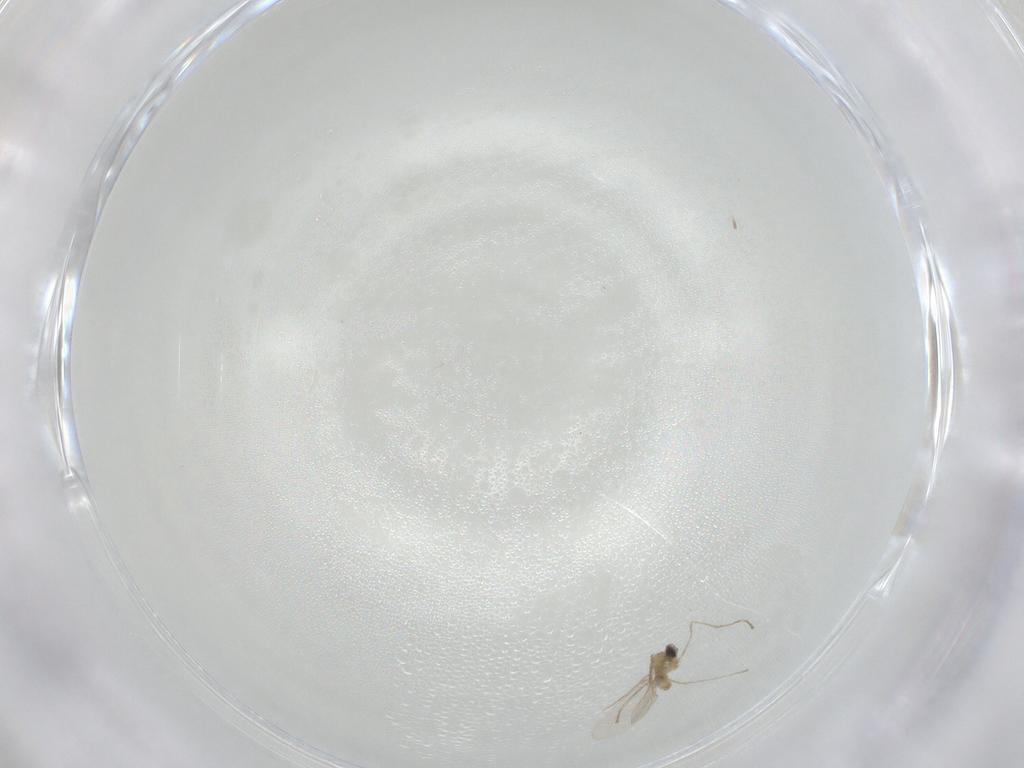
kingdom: Animalia
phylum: Arthropoda
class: Insecta
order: Diptera
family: Cecidomyiidae
